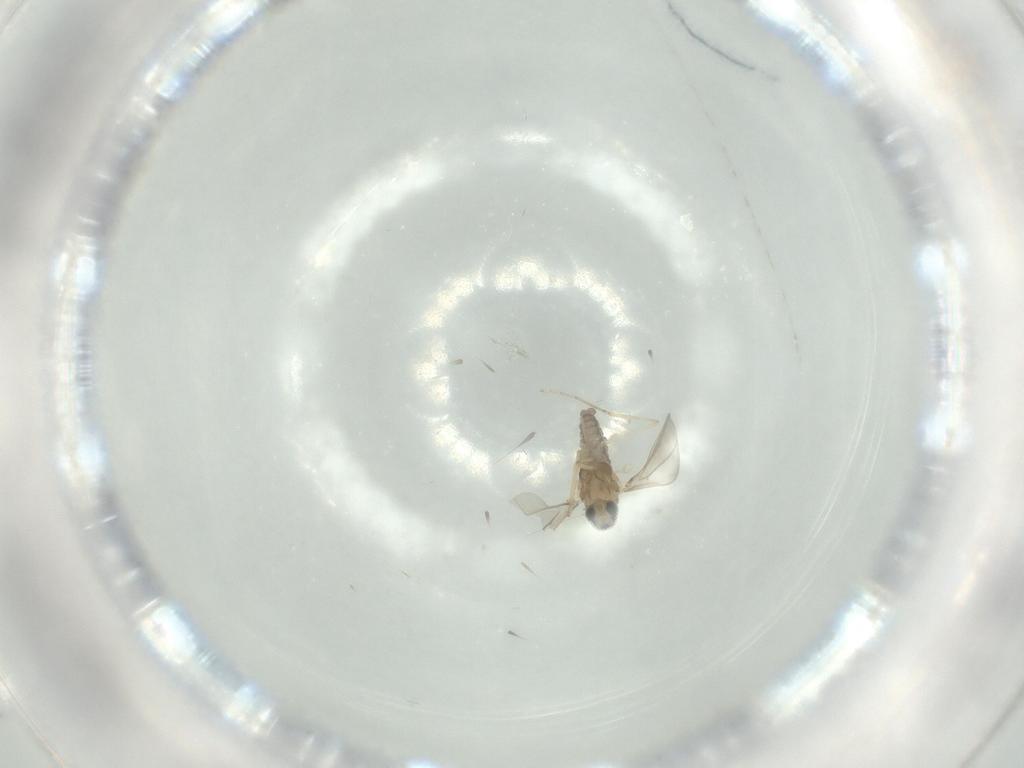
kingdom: Animalia
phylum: Arthropoda
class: Insecta
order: Diptera
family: Cecidomyiidae
